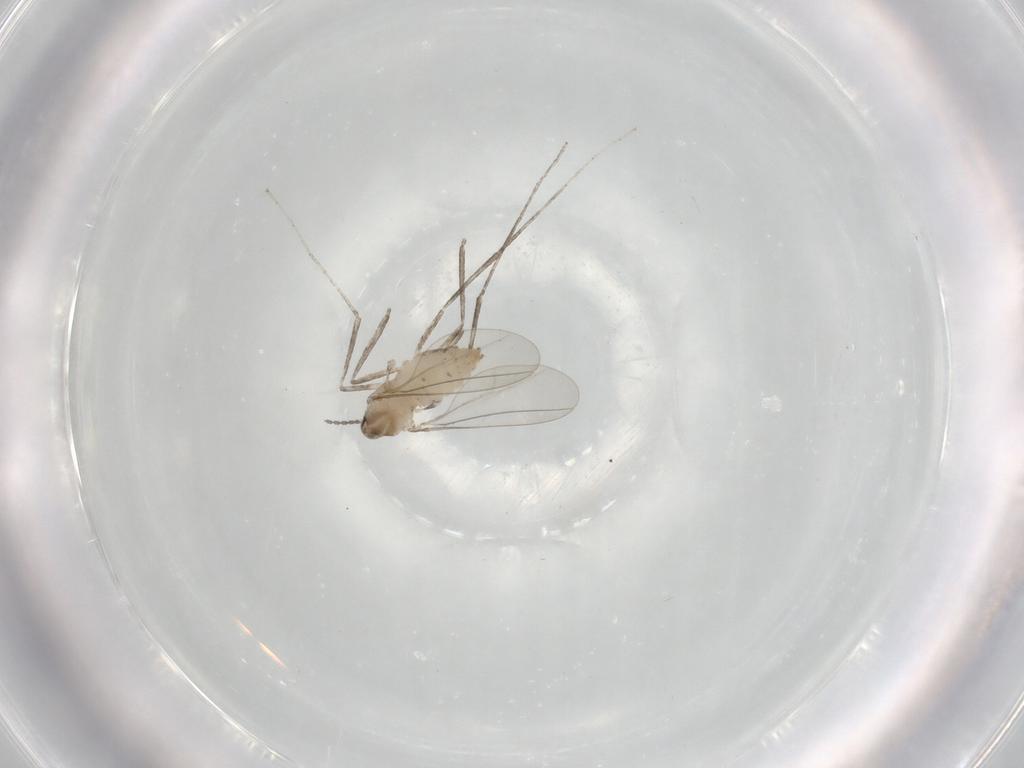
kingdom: Animalia
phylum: Arthropoda
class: Insecta
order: Diptera
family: Cecidomyiidae
